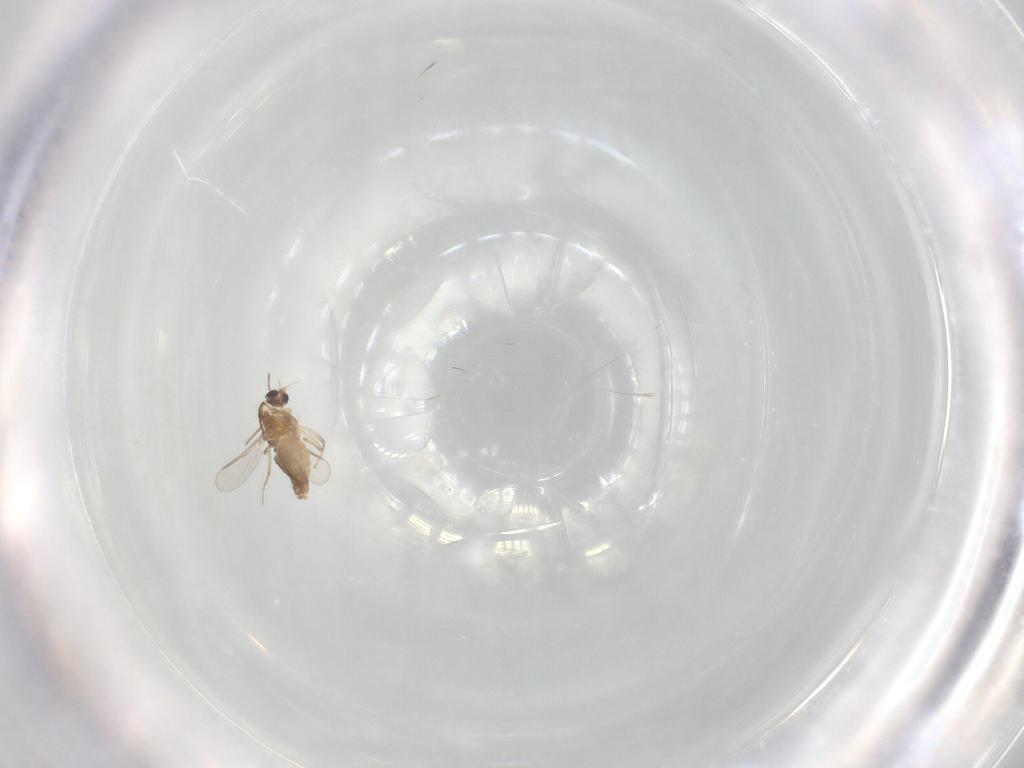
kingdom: Animalia
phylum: Arthropoda
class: Insecta
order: Diptera
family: Chironomidae
